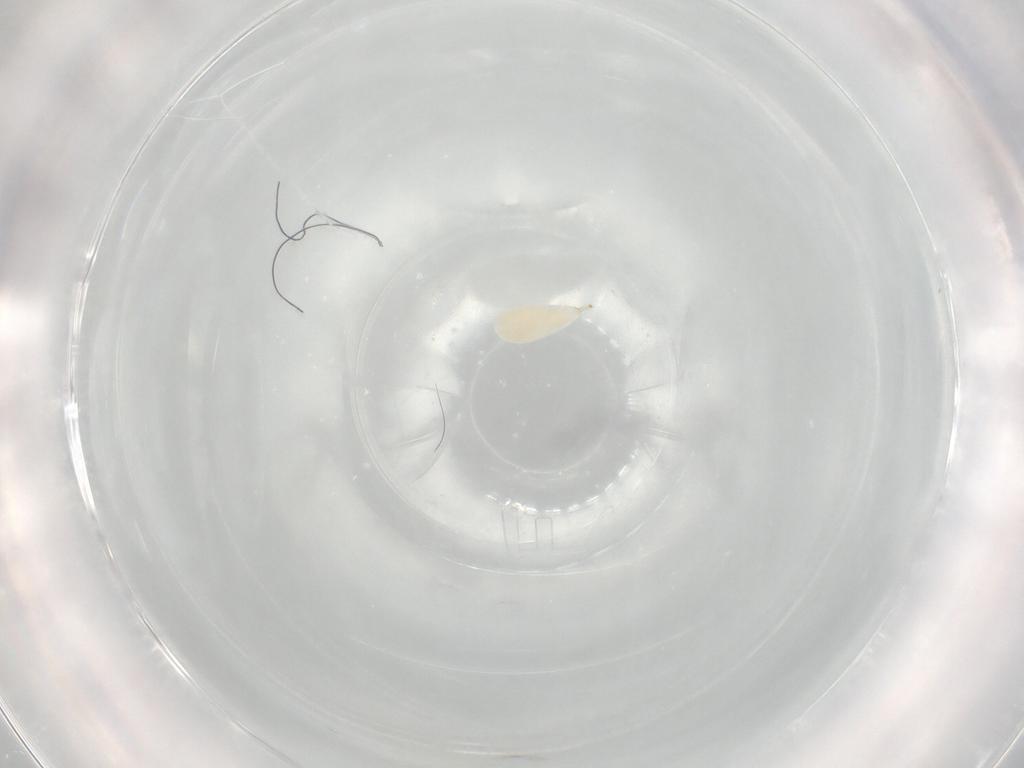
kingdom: Animalia
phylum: Arthropoda
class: Insecta
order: Hymenoptera
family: Ichneumonidae
